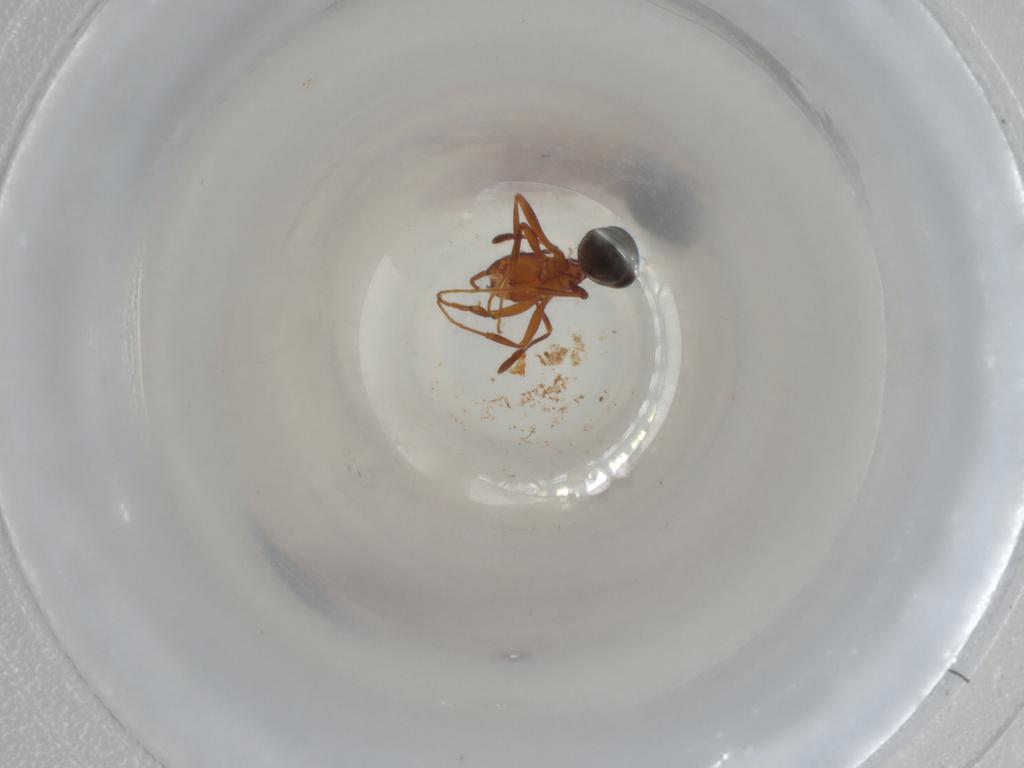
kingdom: Animalia
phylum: Arthropoda
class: Insecta
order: Hymenoptera
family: Formicidae
